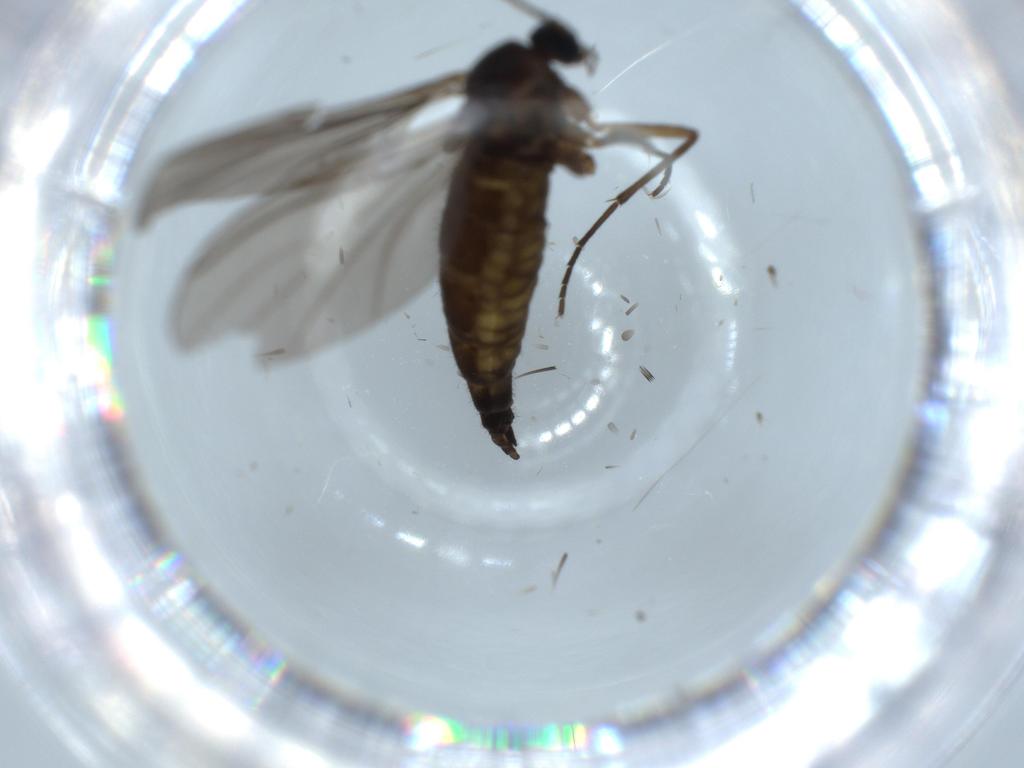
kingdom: Animalia
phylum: Arthropoda
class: Insecta
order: Diptera
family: Sciaridae
